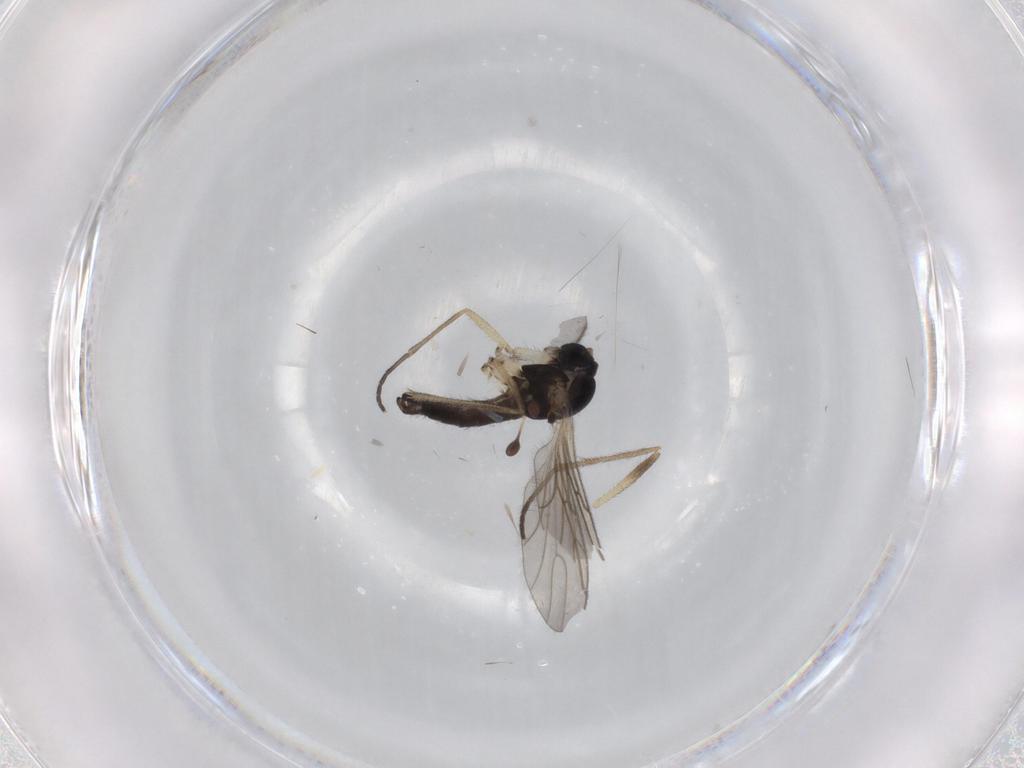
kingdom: Animalia
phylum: Arthropoda
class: Insecta
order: Diptera
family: Sciaridae
